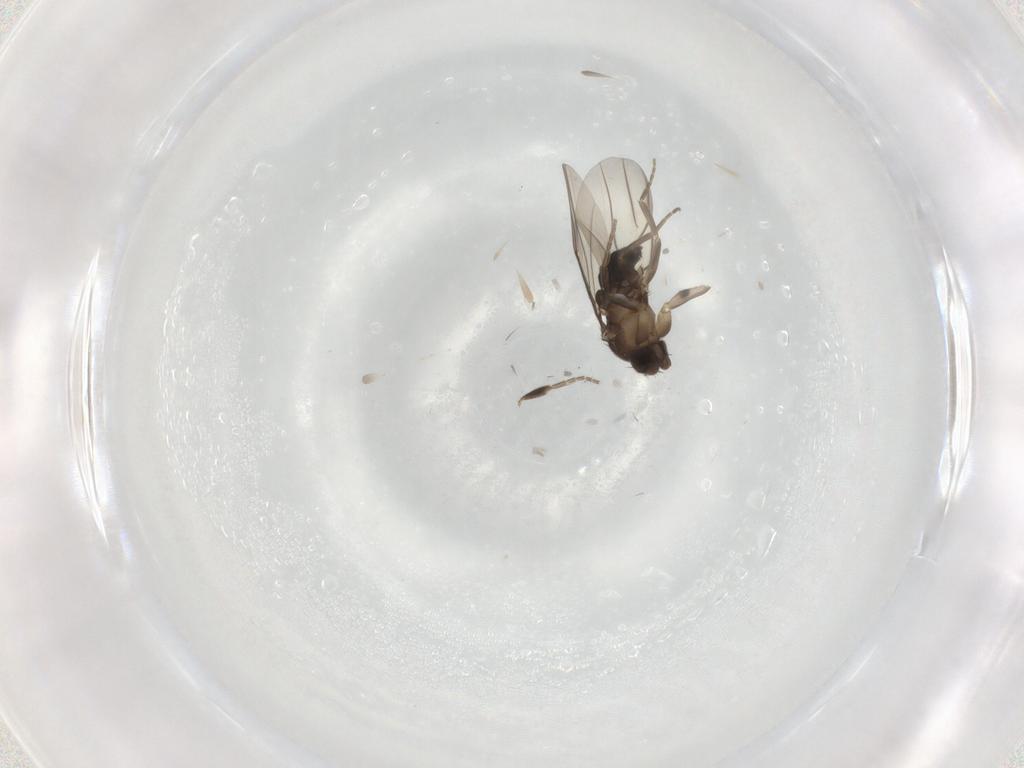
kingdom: Animalia
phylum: Arthropoda
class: Insecta
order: Diptera
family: Phoridae
